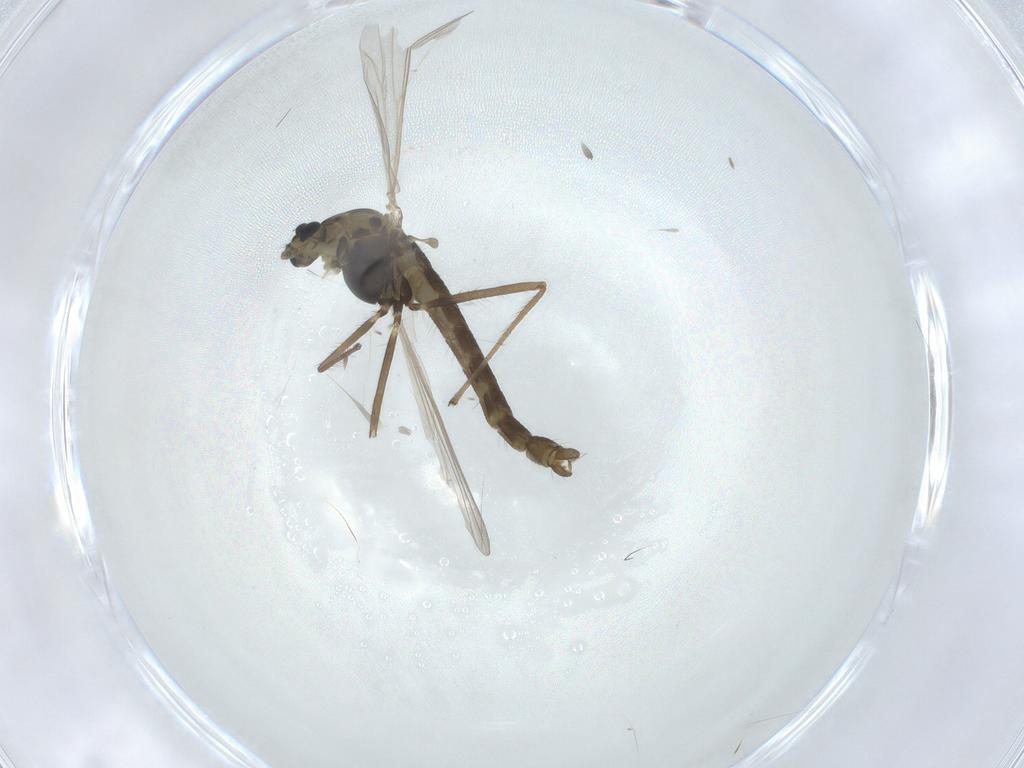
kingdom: Animalia
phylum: Arthropoda
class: Insecta
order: Diptera
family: Chironomidae
